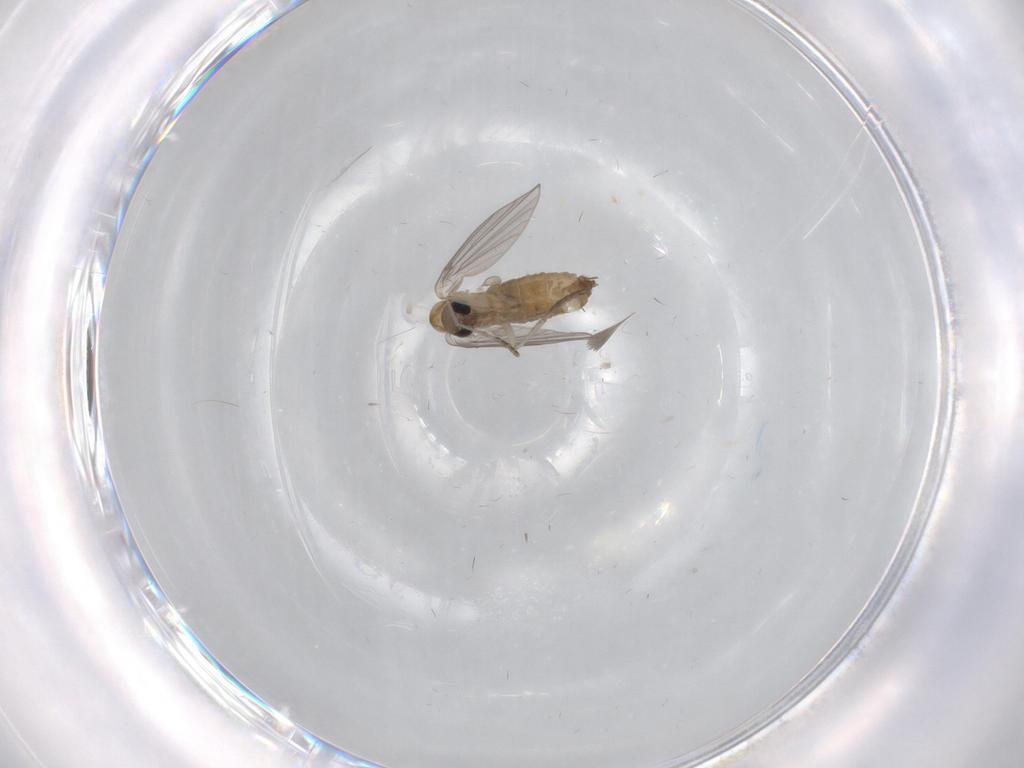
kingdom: Animalia
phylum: Arthropoda
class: Insecta
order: Diptera
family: Limoniidae
